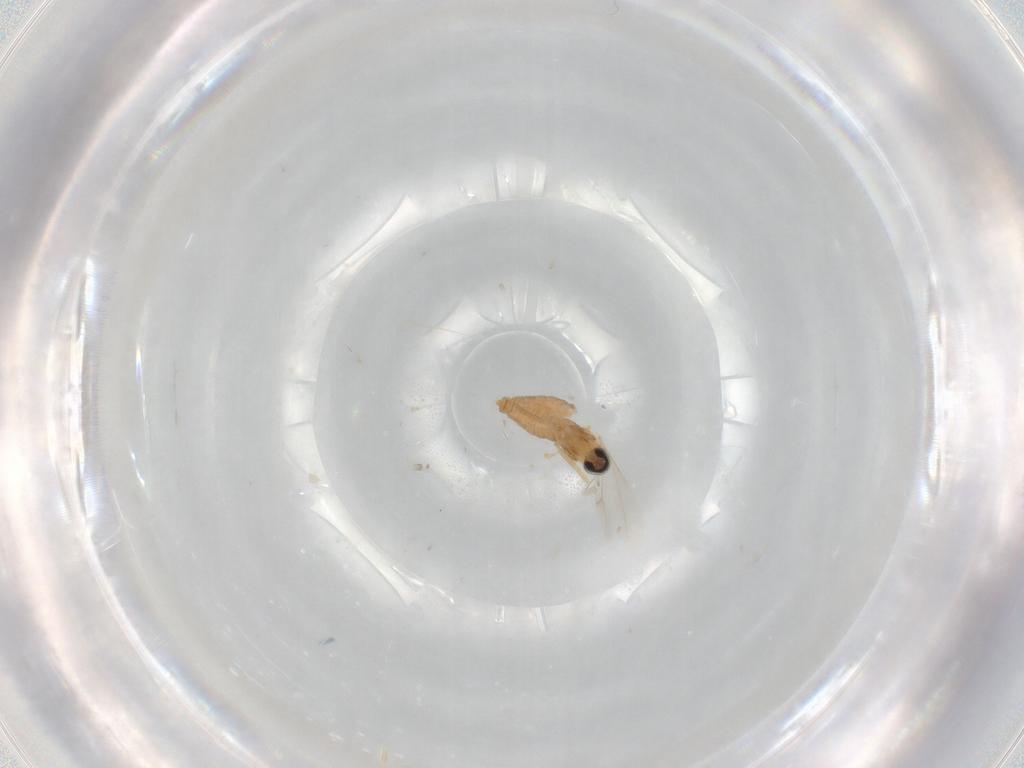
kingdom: Animalia
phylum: Arthropoda
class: Insecta
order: Diptera
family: Cecidomyiidae
